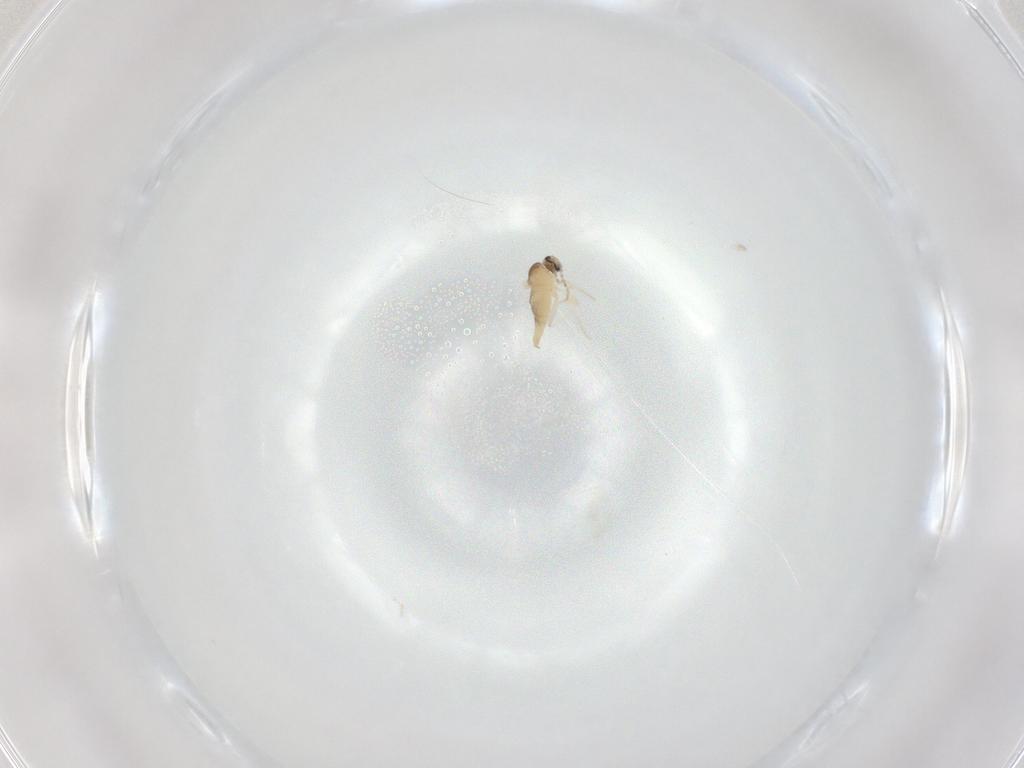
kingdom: Animalia
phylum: Arthropoda
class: Insecta
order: Diptera
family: Cecidomyiidae
